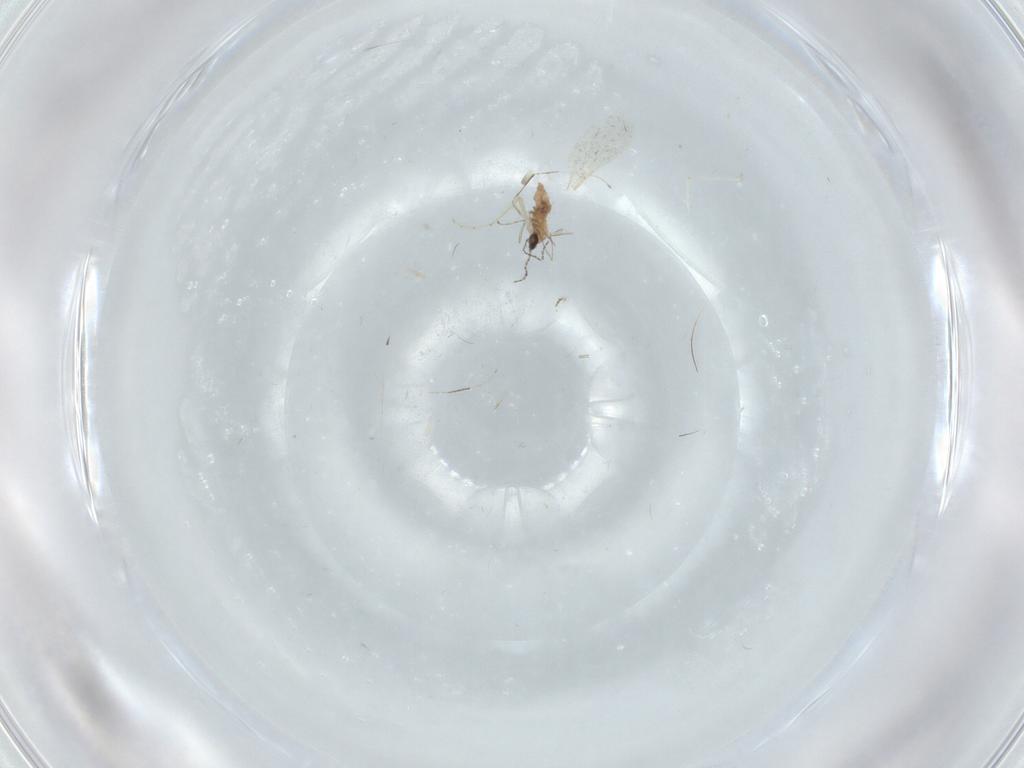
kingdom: Animalia
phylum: Arthropoda
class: Insecta
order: Diptera
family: Cecidomyiidae
